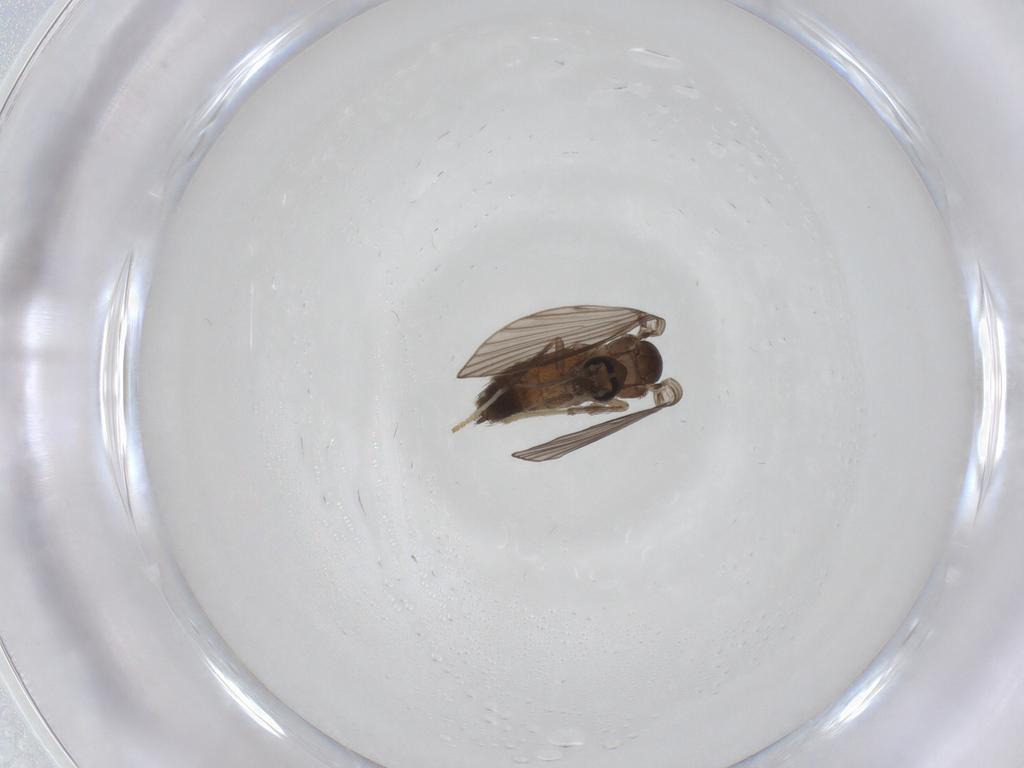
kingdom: Animalia
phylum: Arthropoda
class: Insecta
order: Diptera
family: Psychodidae
